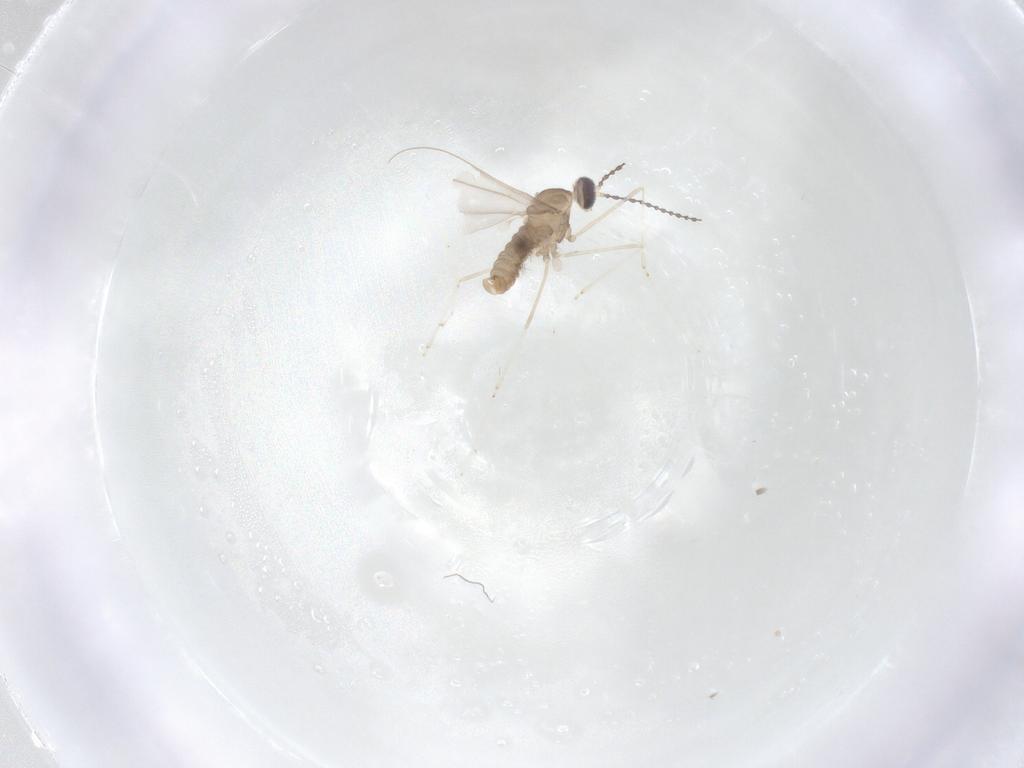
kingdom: Animalia
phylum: Arthropoda
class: Insecta
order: Diptera
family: Cecidomyiidae
